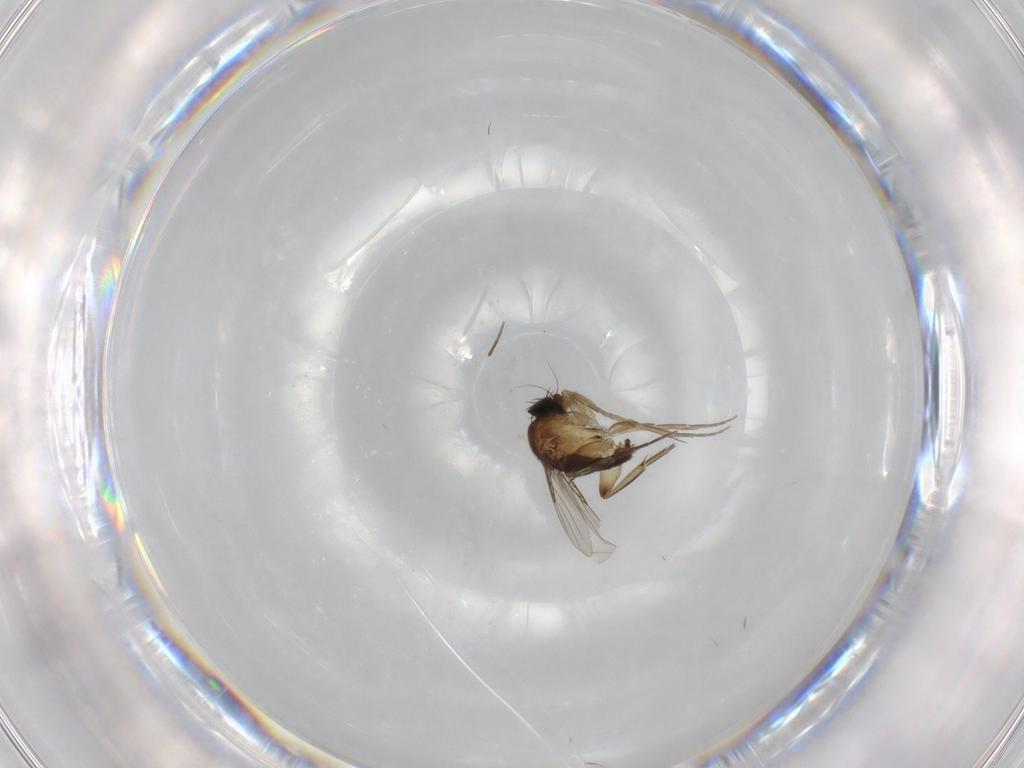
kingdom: Animalia
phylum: Arthropoda
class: Insecta
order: Diptera
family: Phoridae
